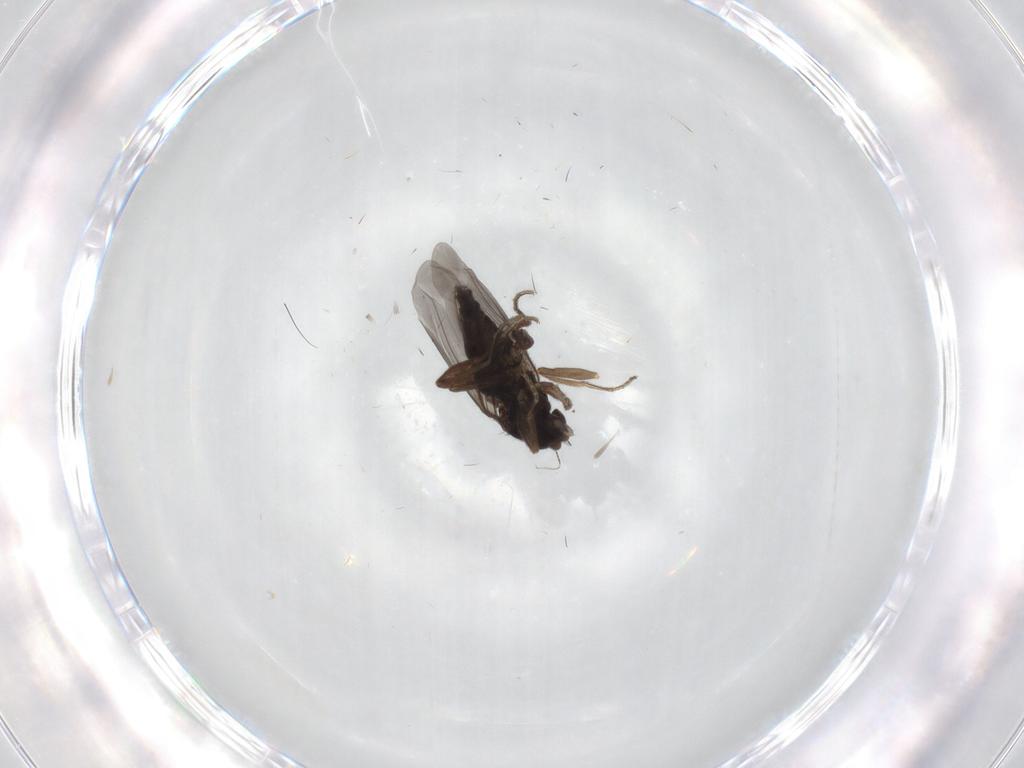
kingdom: Animalia
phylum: Arthropoda
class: Insecta
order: Diptera
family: Phoridae
